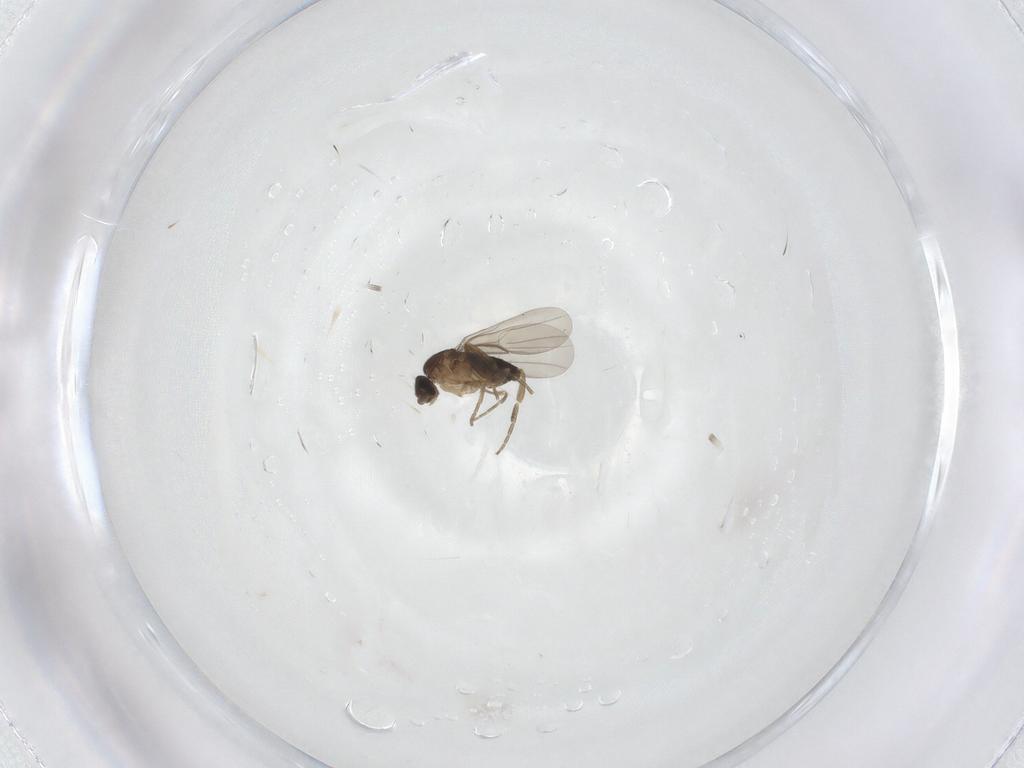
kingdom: Animalia
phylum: Arthropoda
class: Insecta
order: Diptera
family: Phoridae
